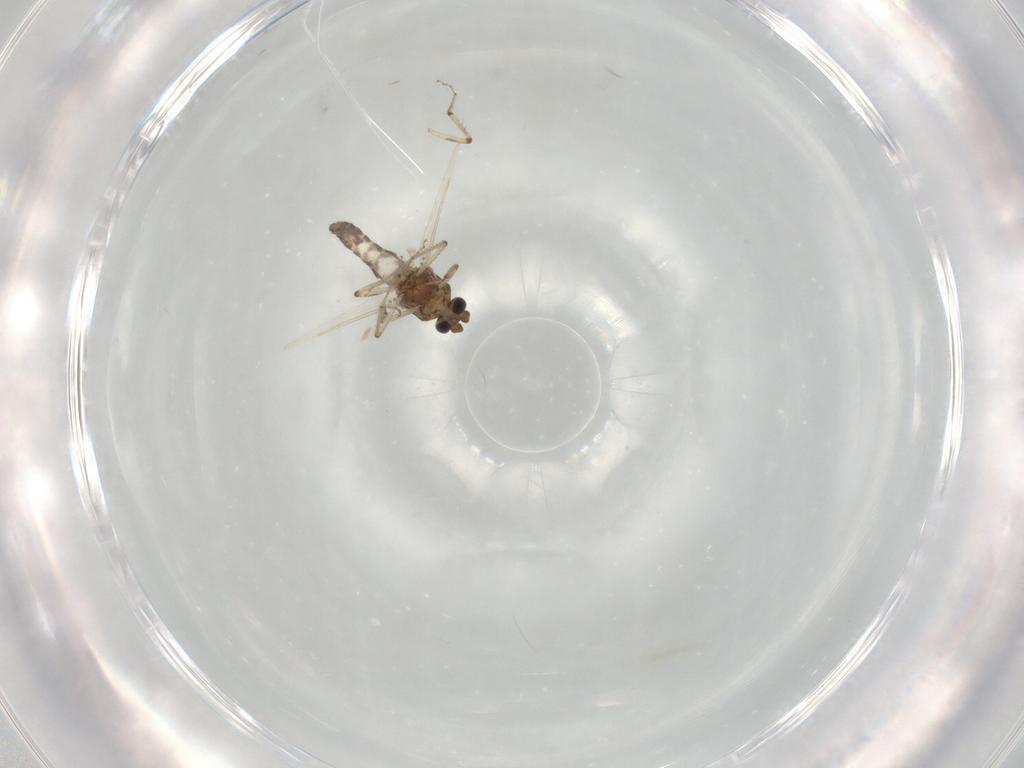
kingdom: Animalia
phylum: Arthropoda
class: Insecta
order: Diptera
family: Ceratopogonidae
